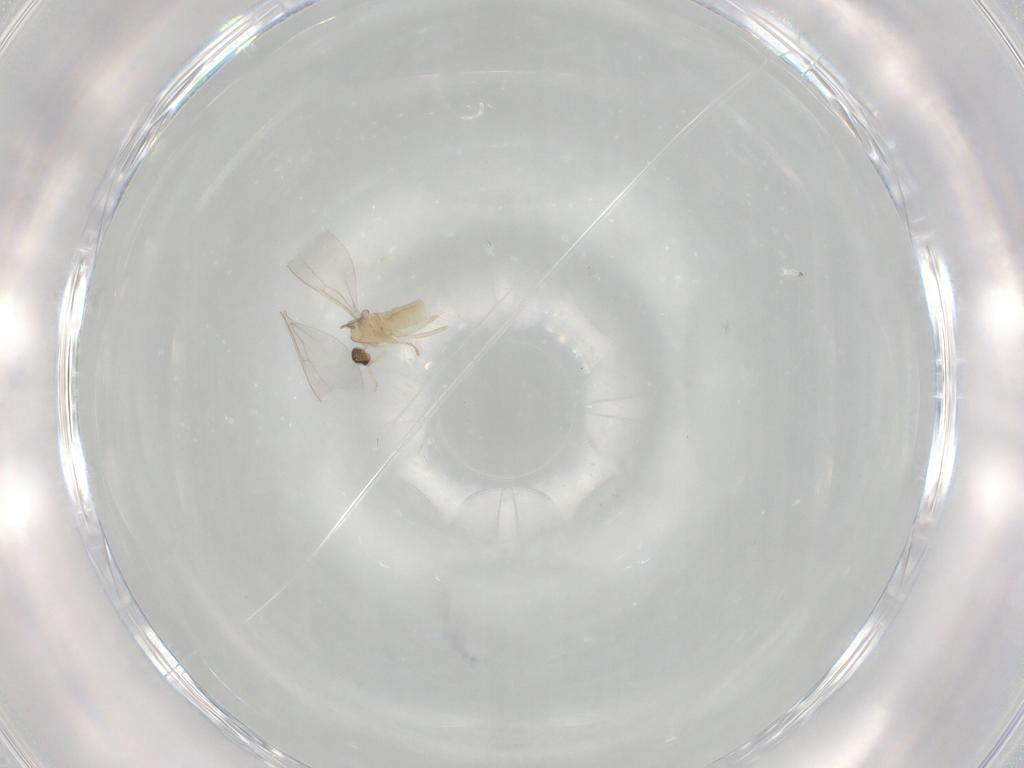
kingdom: Animalia
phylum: Arthropoda
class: Insecta
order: Diptera
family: Cecidomyiidae
